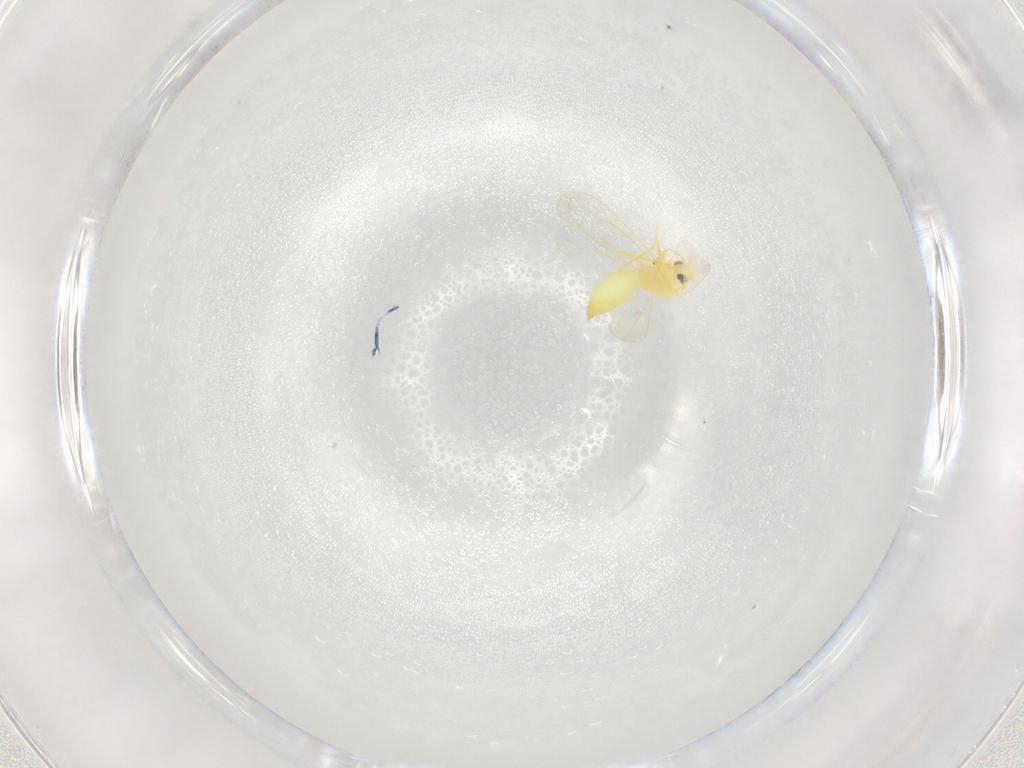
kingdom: Animalia
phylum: Arthropoda
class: Insecta
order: Hemiptera
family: Aleyrodidae
